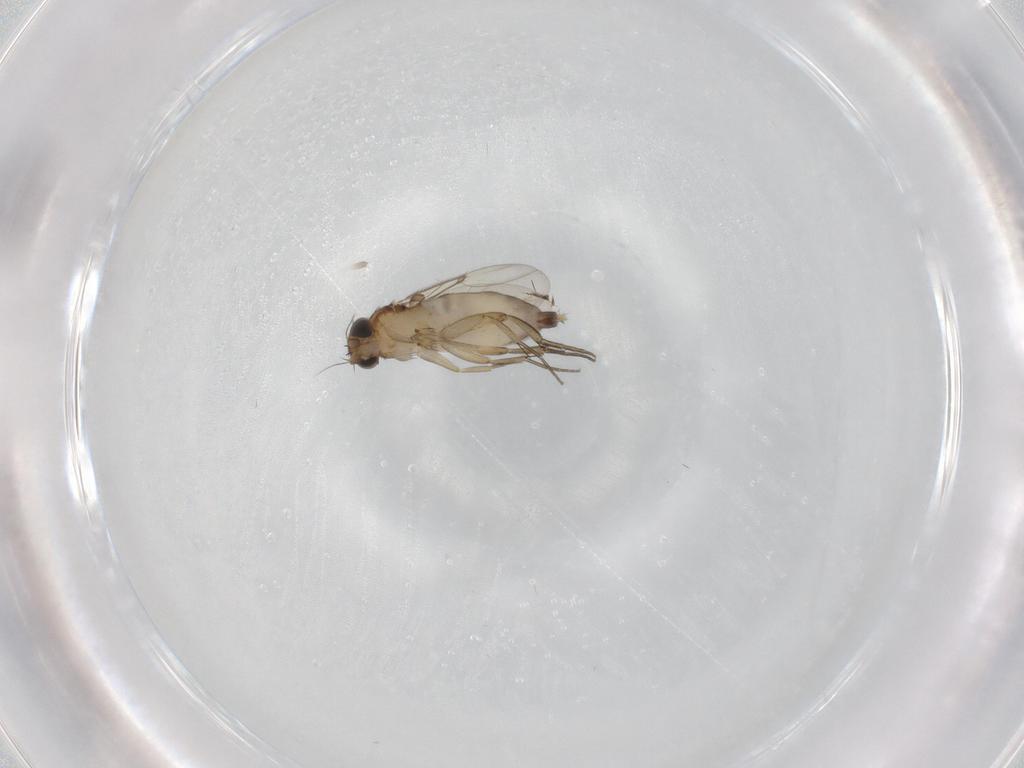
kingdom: Animalia
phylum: Arthropoda
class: Insecta
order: Diptera
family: Phoridae
